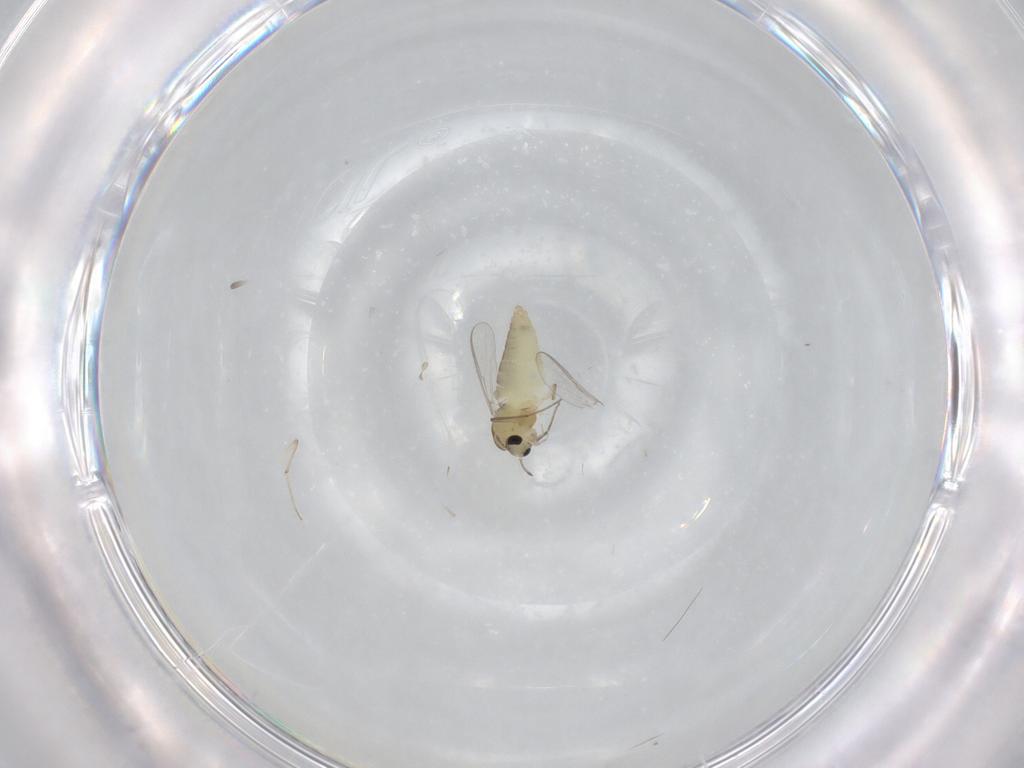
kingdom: Animalia
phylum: Arthropoda
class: Insecta
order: Diptera
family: Chironomidae
